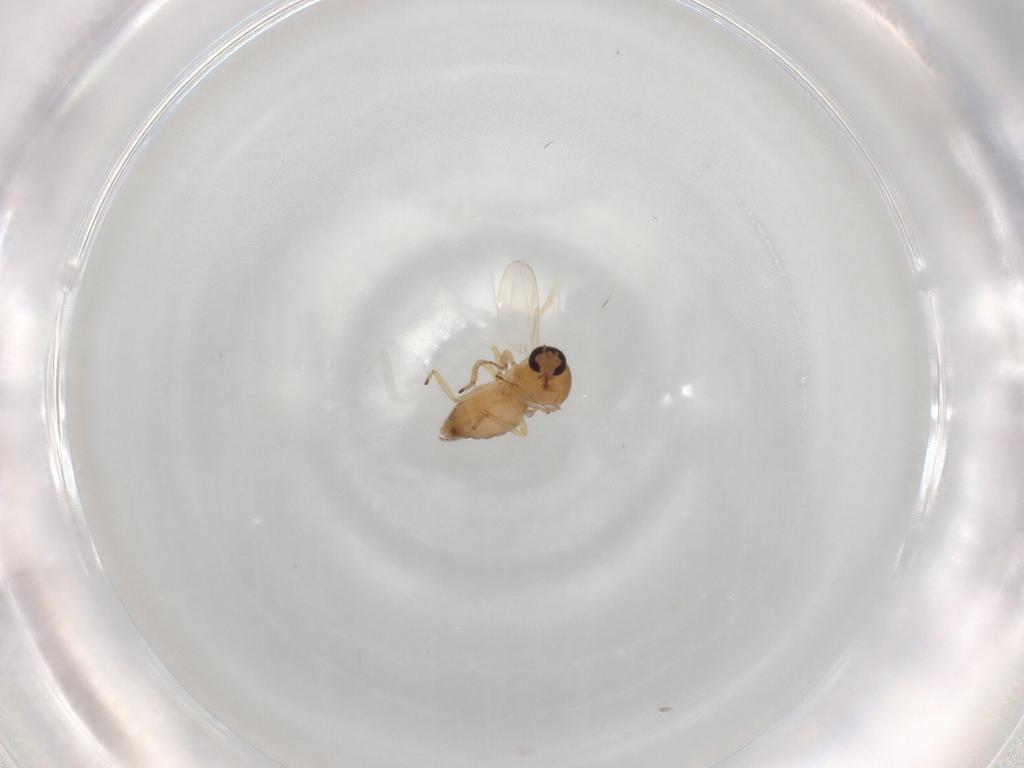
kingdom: Animalia
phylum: Arthropoda
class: Insecta
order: Diptera
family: Ceratopogonidae
